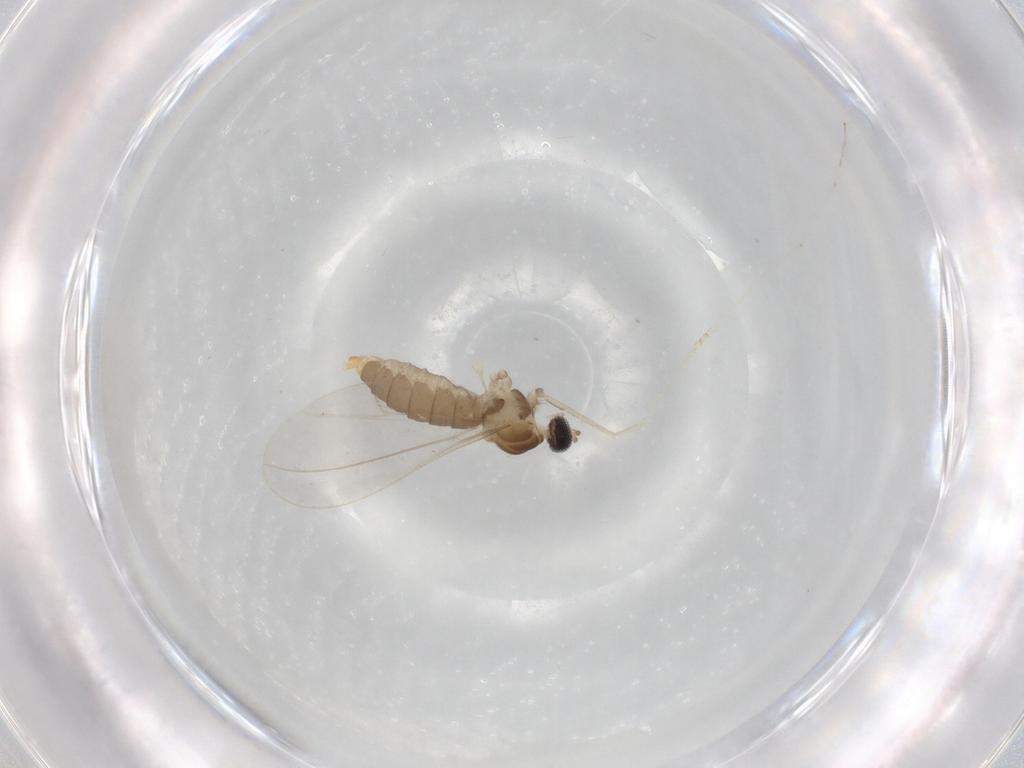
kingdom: Animalia
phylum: Arthropoda
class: Insecta
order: Diptera
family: Cecidomyiidae
